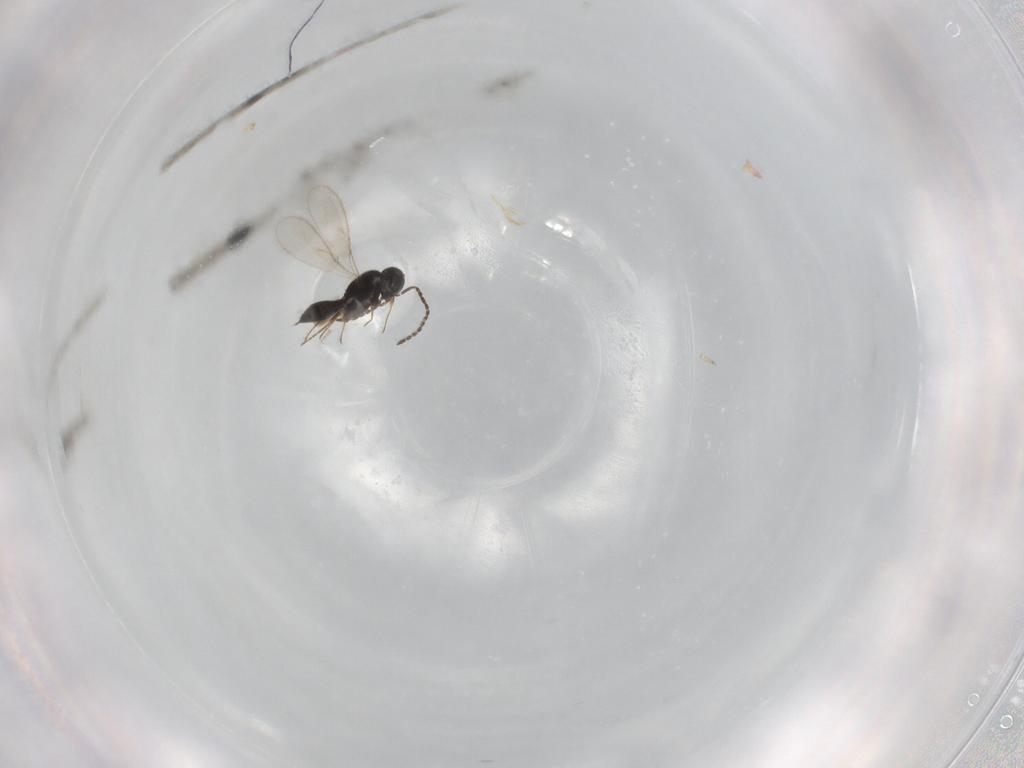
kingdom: Animalia
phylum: Arthropoda
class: Insecta
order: Hymenoptera
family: Scelionidae
